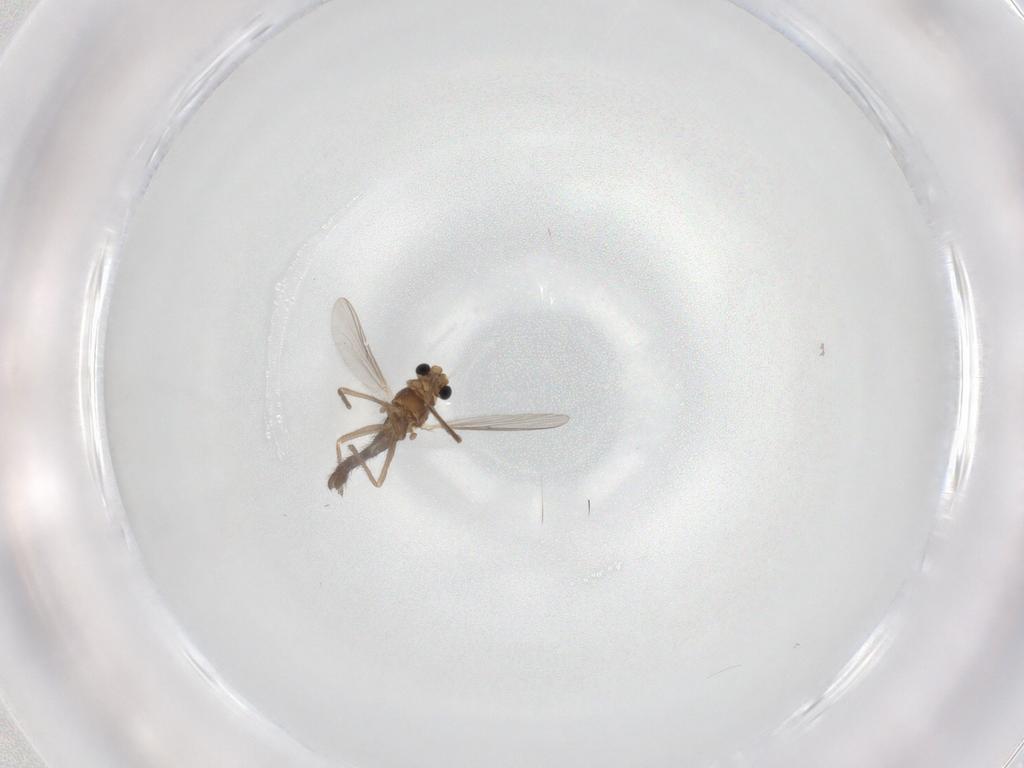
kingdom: Animalia
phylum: Arthropoda
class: Insecta
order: Diptera
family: Chironomidae
